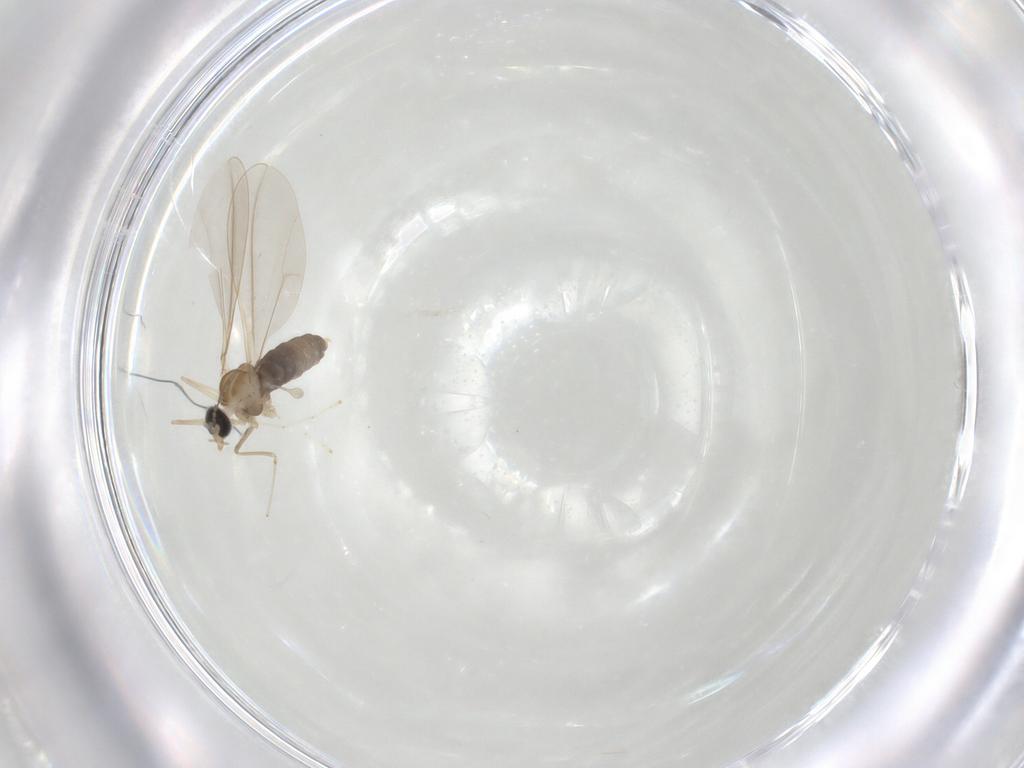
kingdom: Animalia
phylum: Arthropoda
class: Insecta
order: Diptera
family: Cecidomyiidae
